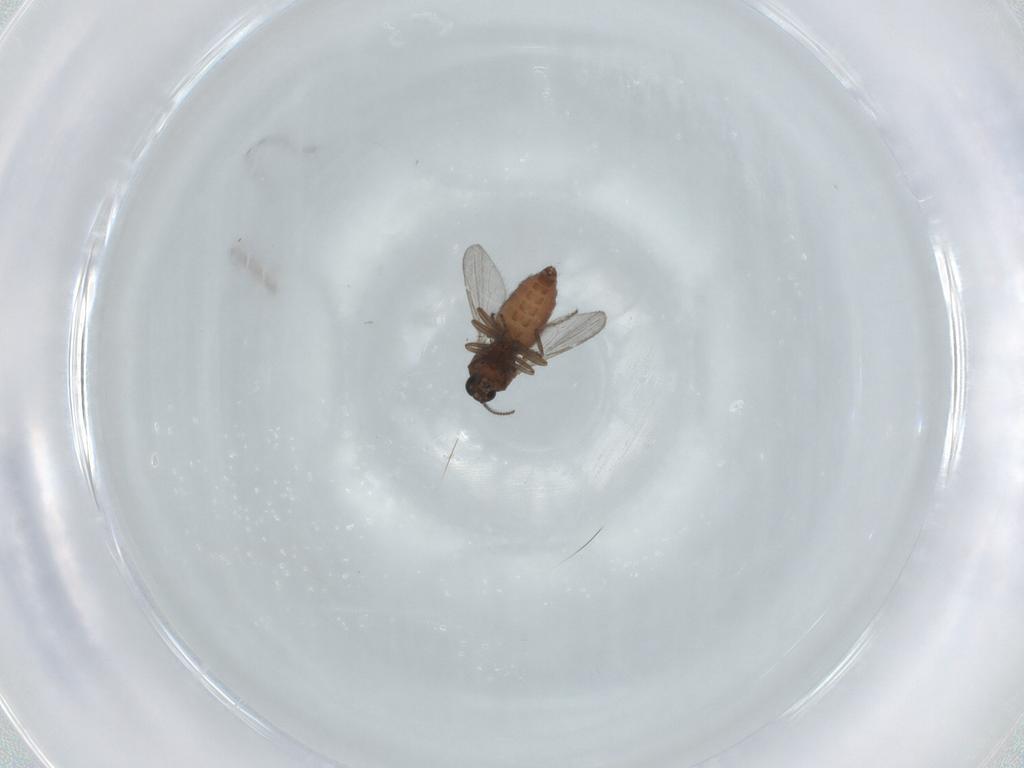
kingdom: Animalia
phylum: Arthropoda
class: Insecta
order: Diptera
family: Ceratopogonidae
